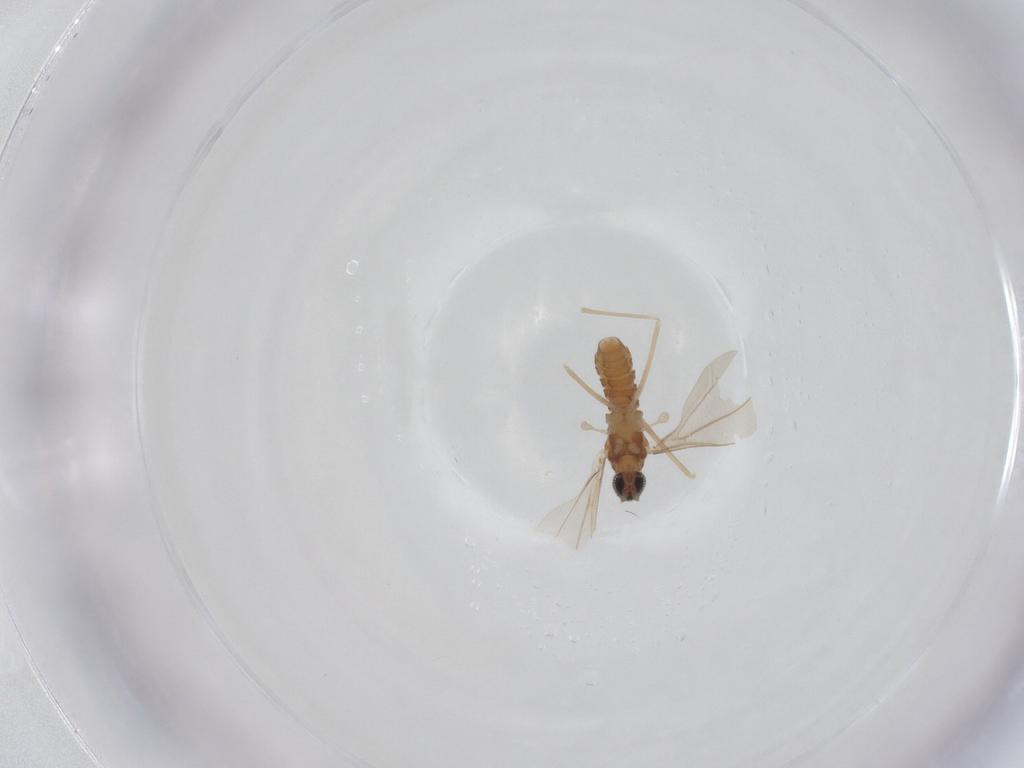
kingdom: Animalia
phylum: Arthropoda
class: Insecta
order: Diptera
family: Cecidomyiidae
